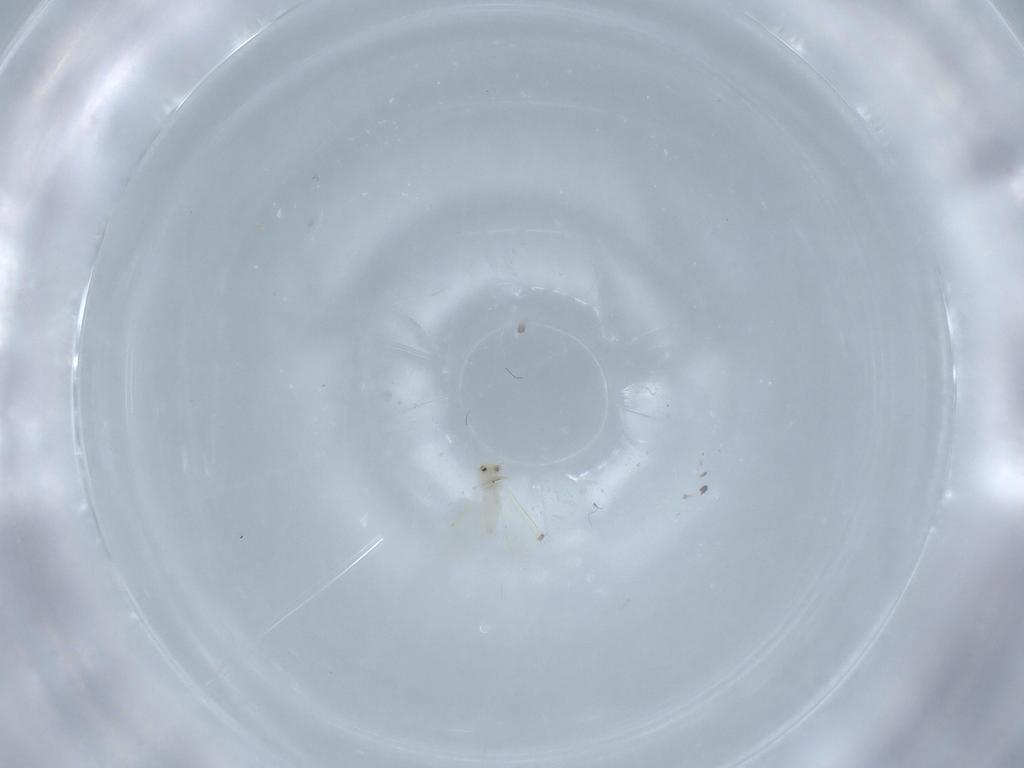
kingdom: Animalia
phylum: Arthropoda
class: Insecta
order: Hemiptera
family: Aleyrodidae
